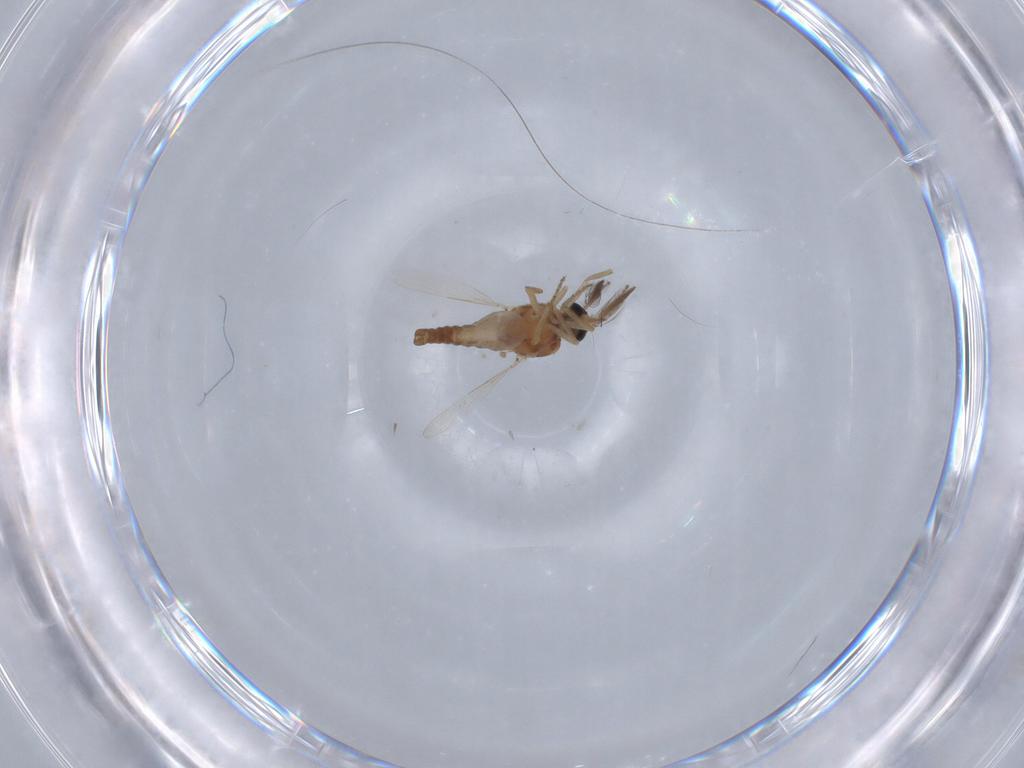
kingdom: Animalia
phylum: Arthropoda
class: Insecta
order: Diptera
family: Ceratopogonidae
